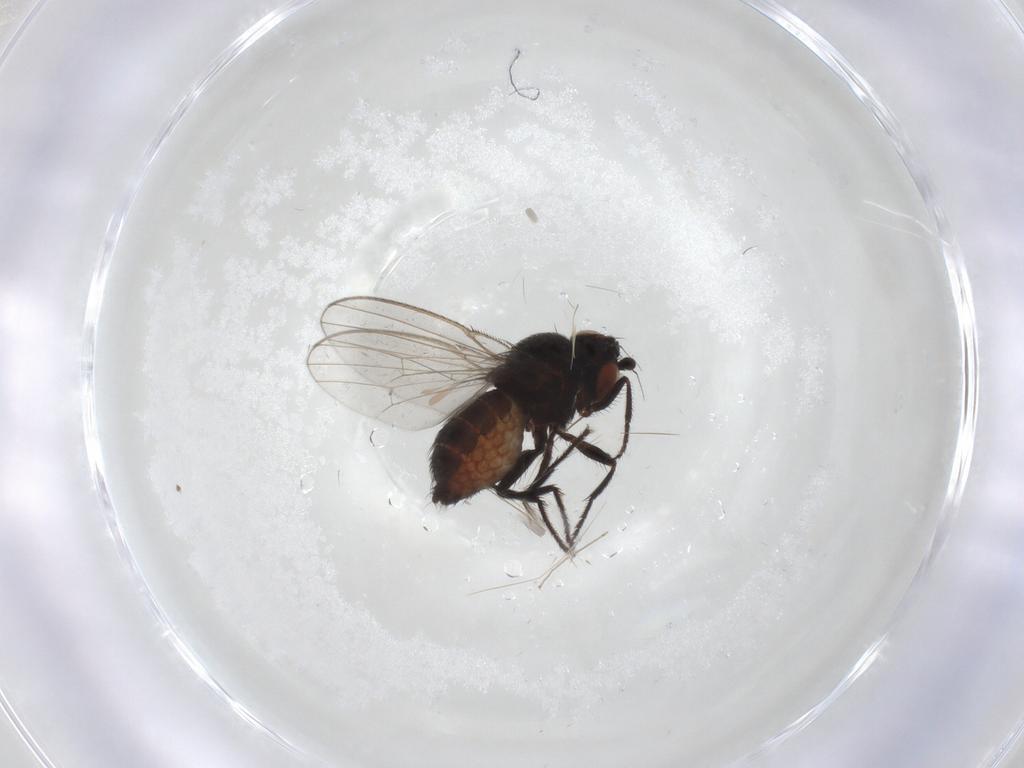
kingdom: Animalia
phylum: Arthropoda
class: Insecta
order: Diptera
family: Milichiidae
